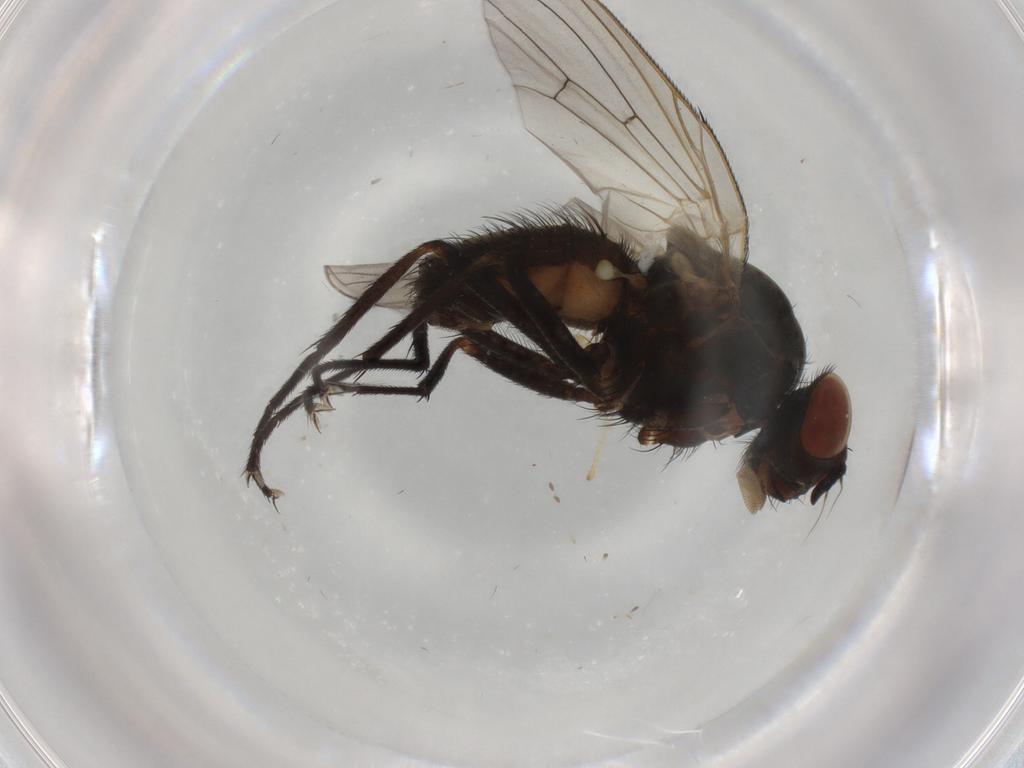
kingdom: Animalia
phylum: Arthropoda
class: Insecta
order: Diptera
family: Anthomyiidae
